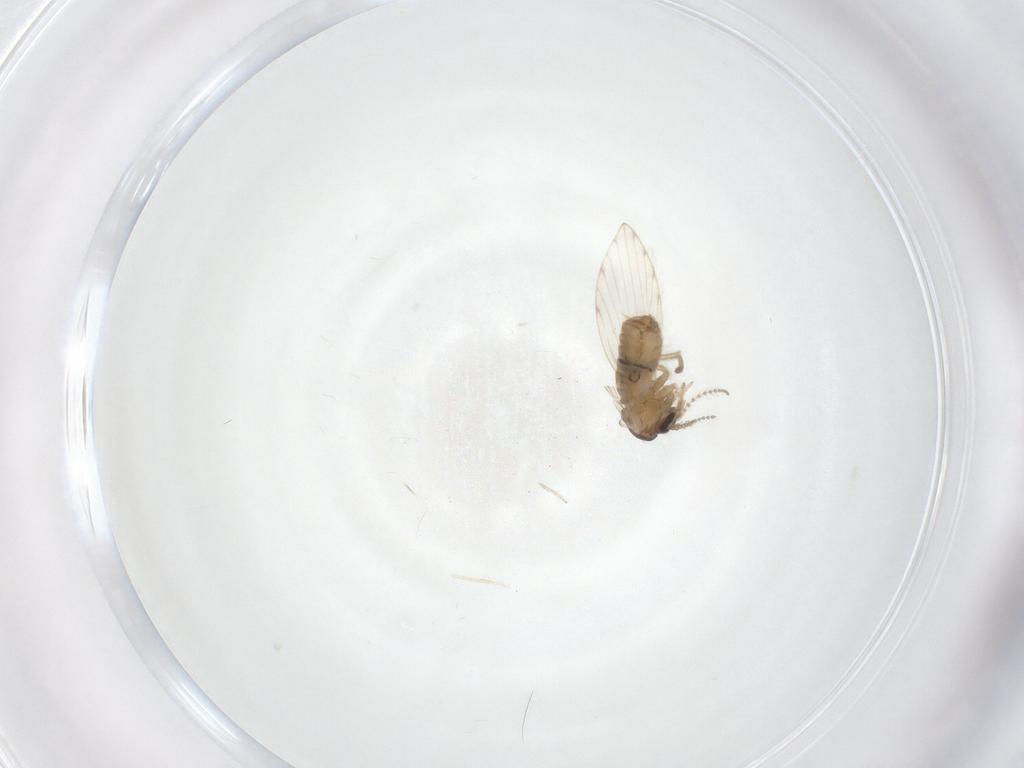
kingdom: Animalia
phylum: Arthropoda
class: Insecta
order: Diptera
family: Psychodidae
